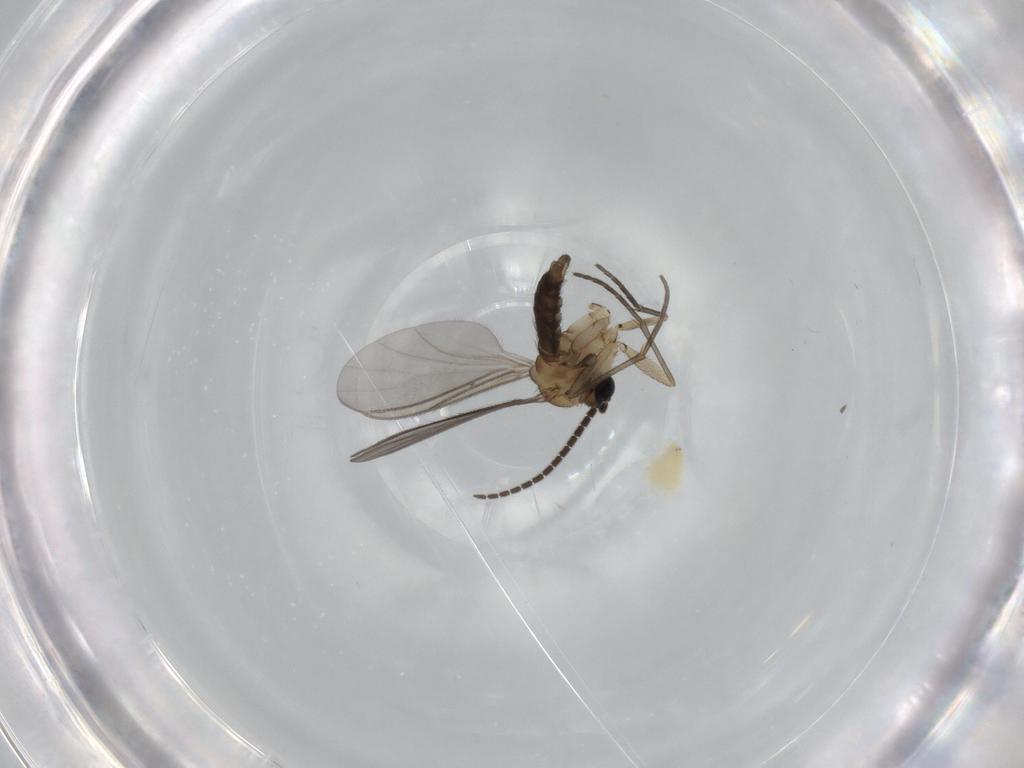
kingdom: Animalia
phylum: Arthropoda
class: Insecta
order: Diptera
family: Sciaridae
